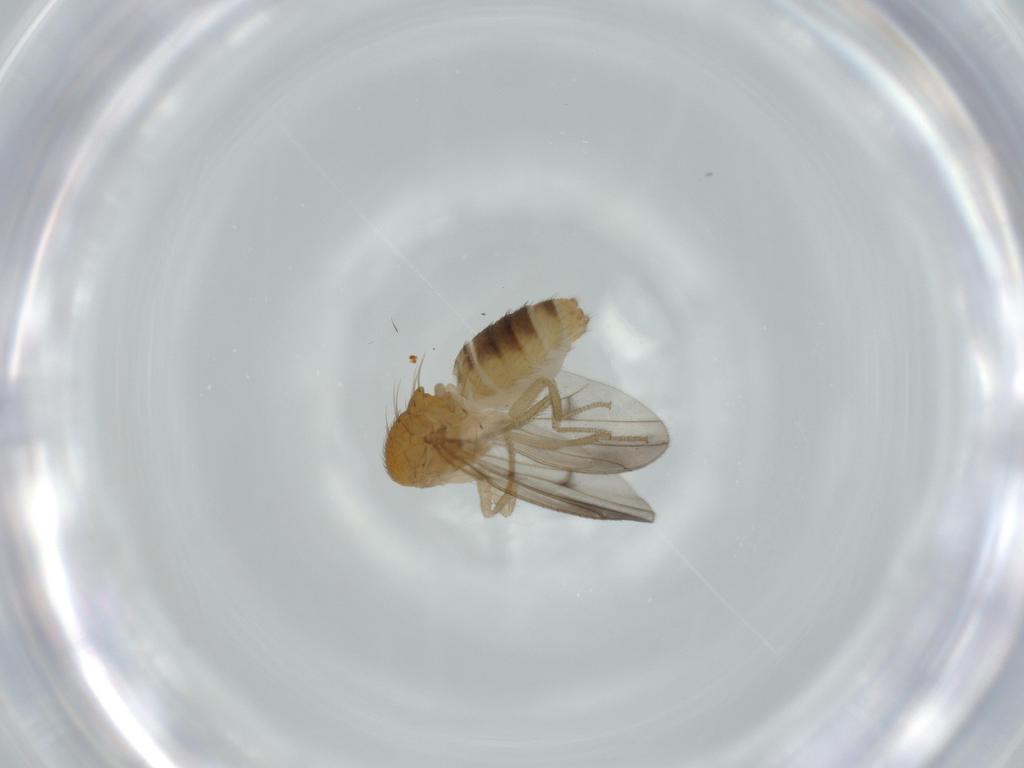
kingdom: Animalia
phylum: Arthropoda
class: Insecta
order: Diptera
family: Drosophilidae
